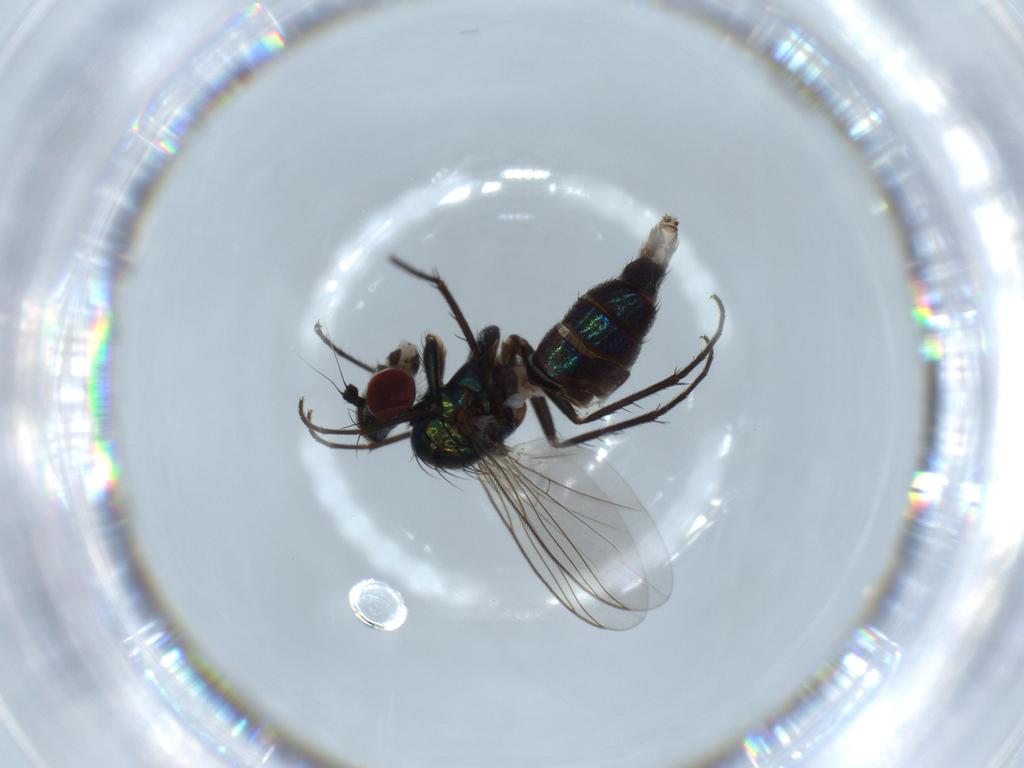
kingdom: Animalia
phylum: Arthropoda
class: Insecta
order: Diptera
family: Dolichopodidae
